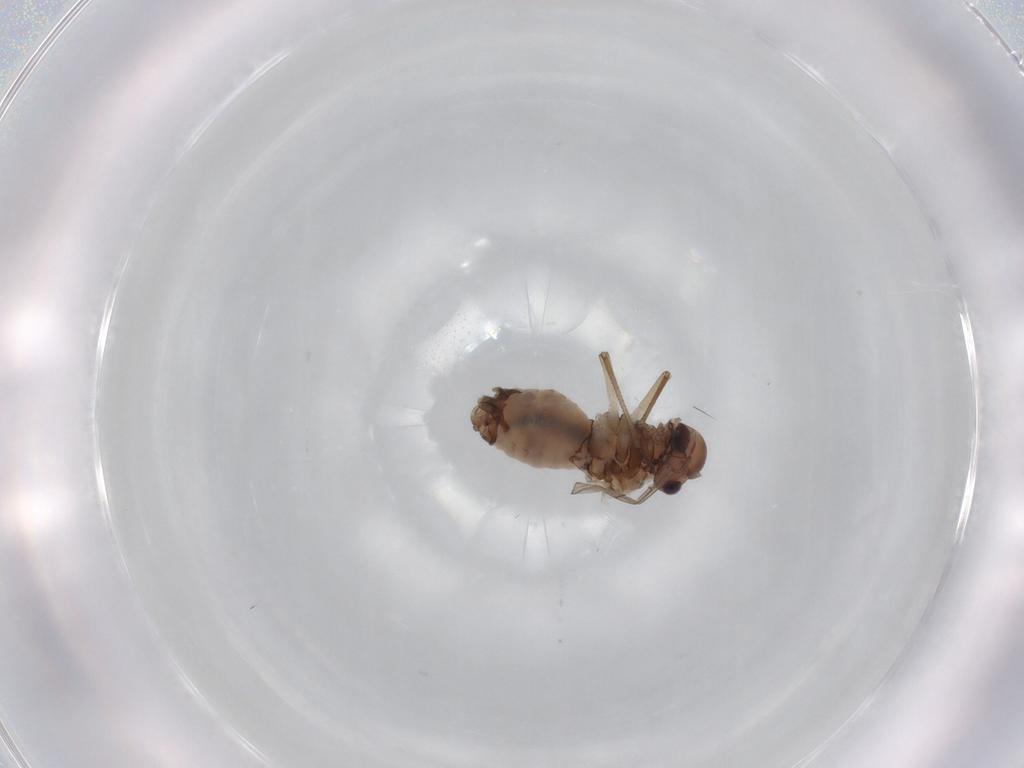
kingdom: Animalia
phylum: Arthropoda
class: Insecta
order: Psocodea
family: Peripsocidae
